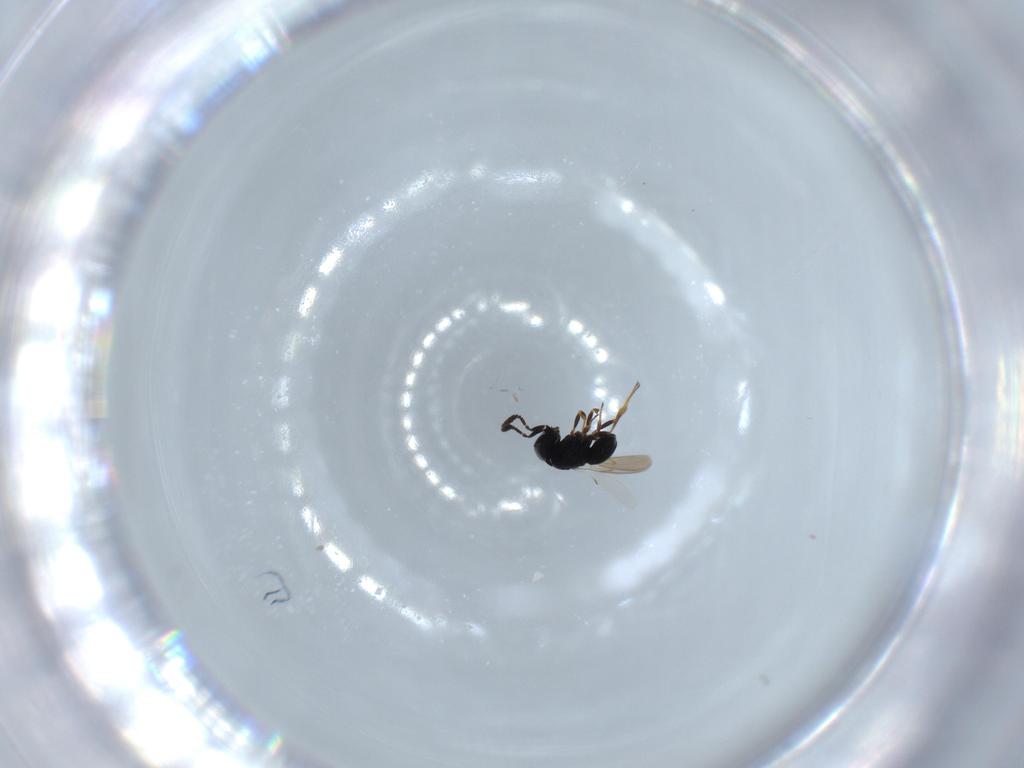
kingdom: Animalia
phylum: Arthropoda
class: Insecta
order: Hymenoptera
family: Scelionidae
